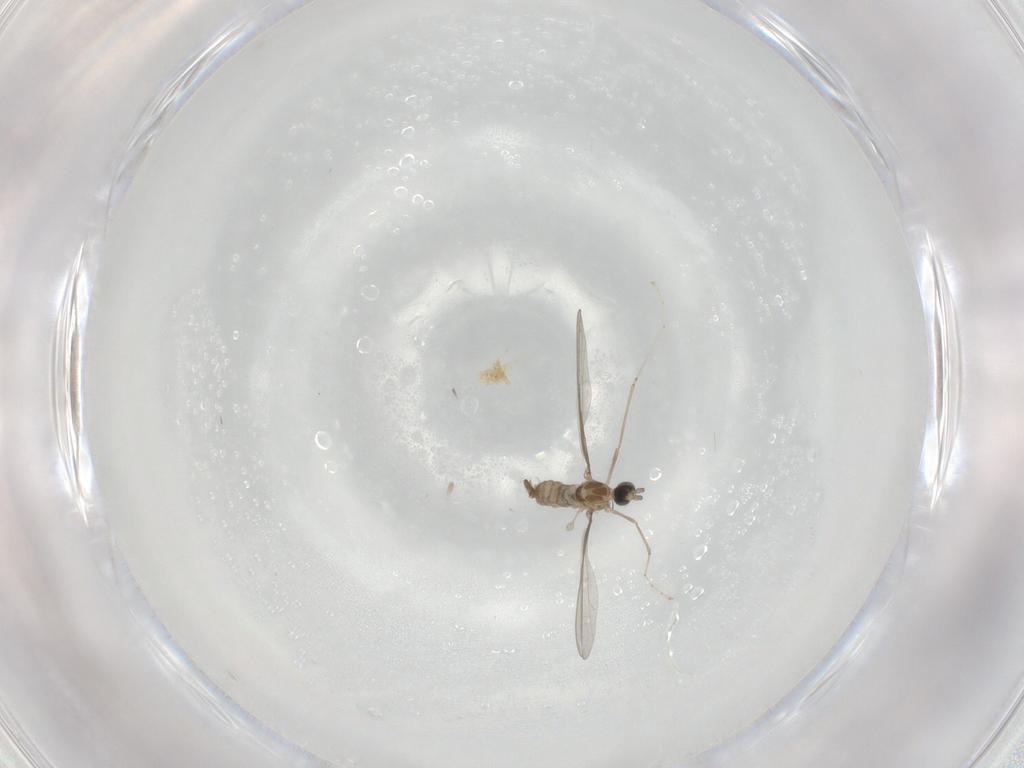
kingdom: Animalia
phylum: Arthropoda
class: Insecta
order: Diptera
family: Cecidomyiidae
